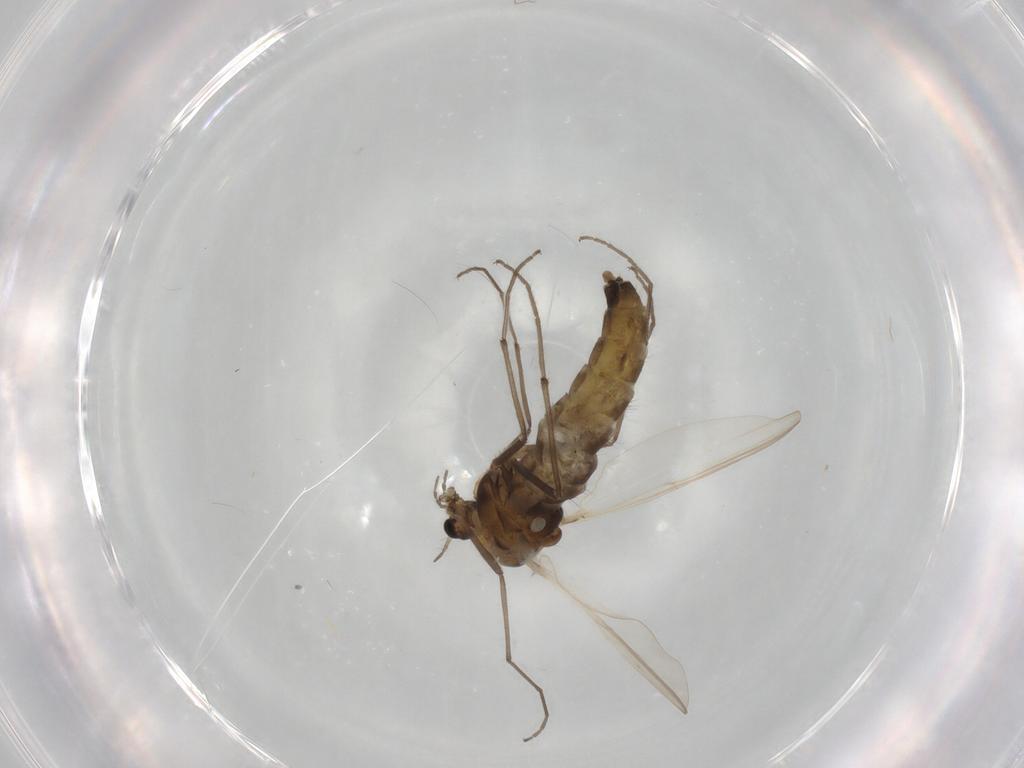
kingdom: Animalia
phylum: Arthropoda
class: Insecta
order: Diptera
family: Chironomidae
